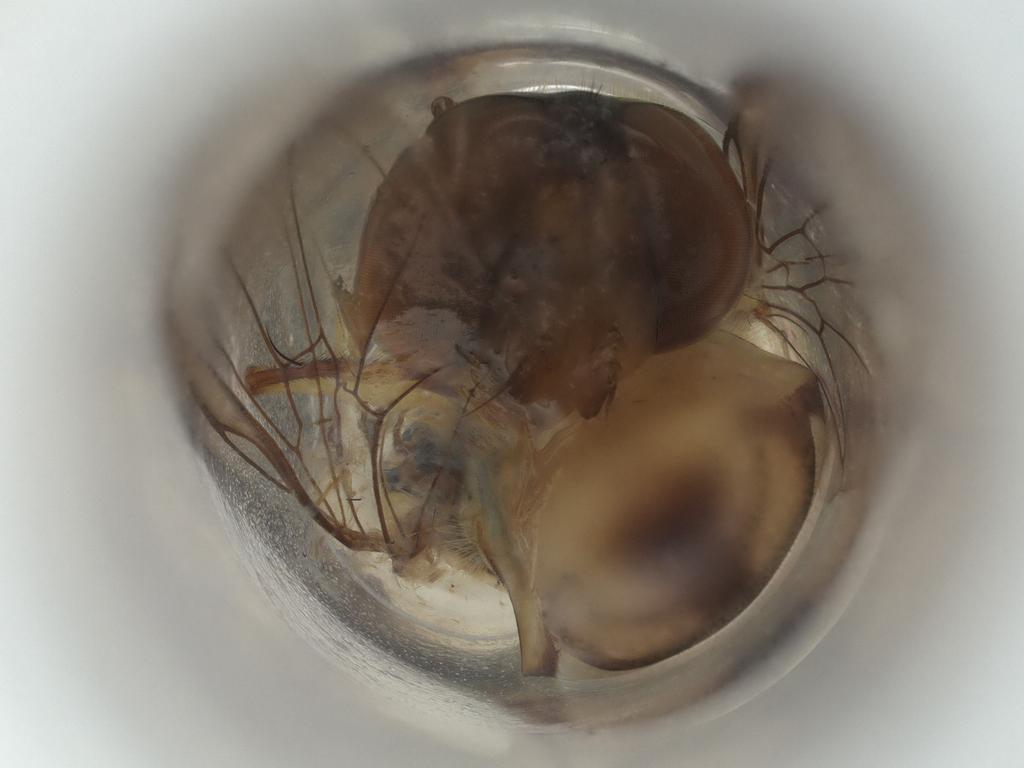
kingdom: Animalia
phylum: Arthropoda
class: Insecta
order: Diptera
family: Syrphidae
